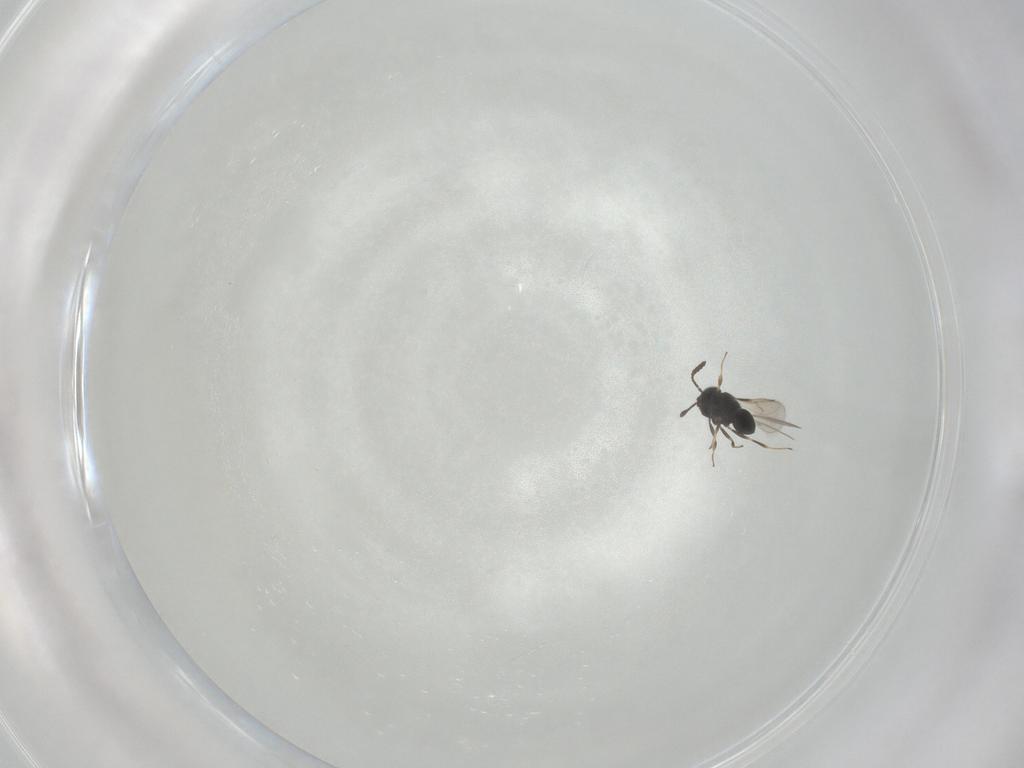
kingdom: Animalia
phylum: Arthropoda
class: Insecta
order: Hymenoptera
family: Scelionidae
